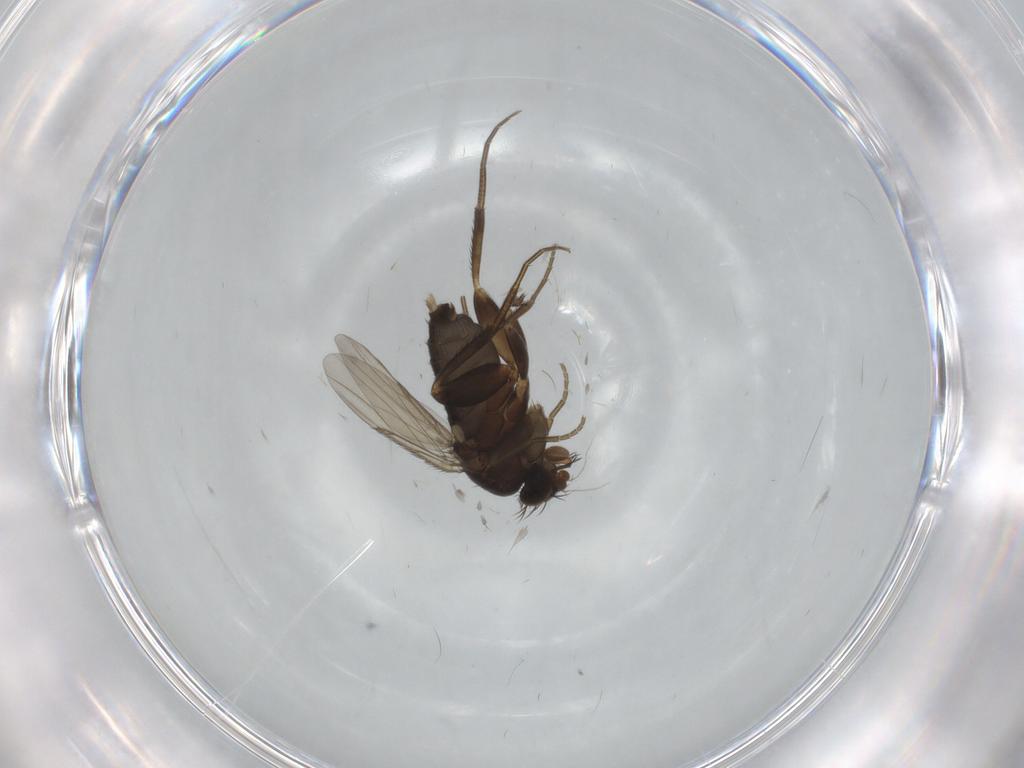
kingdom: Animalia
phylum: Arthropoda
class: Insecta
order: Diptera
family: Phoridae
